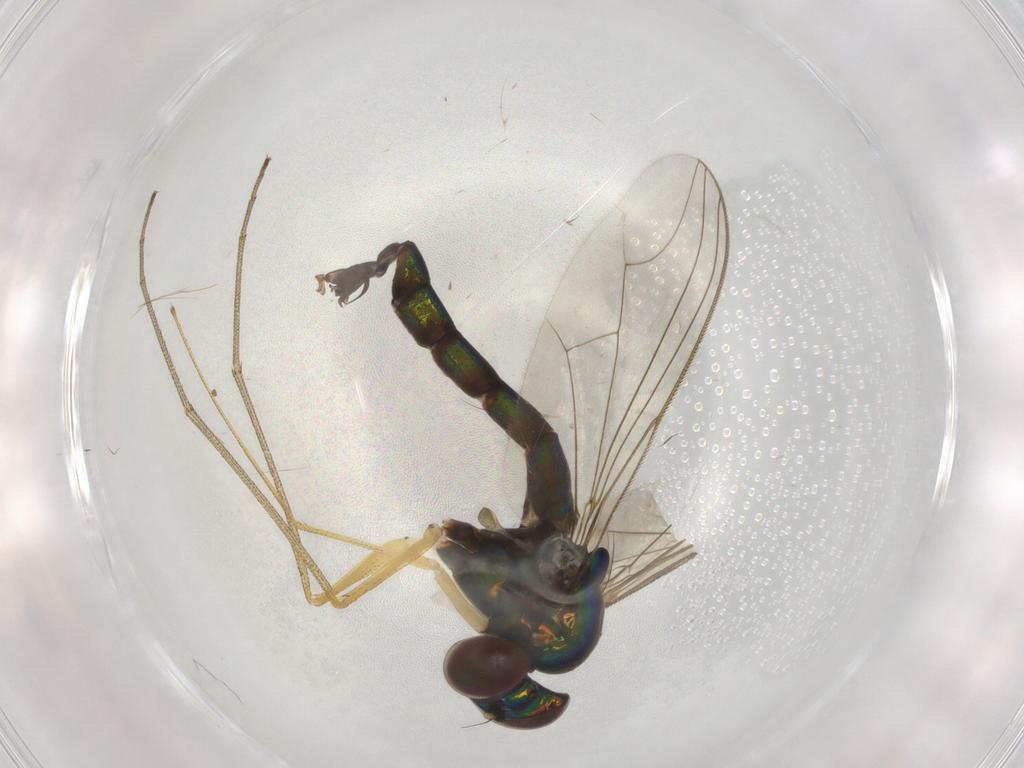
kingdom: Animalia
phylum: Arthropoda
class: Insecta
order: Diptera
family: Dolichopodidae
